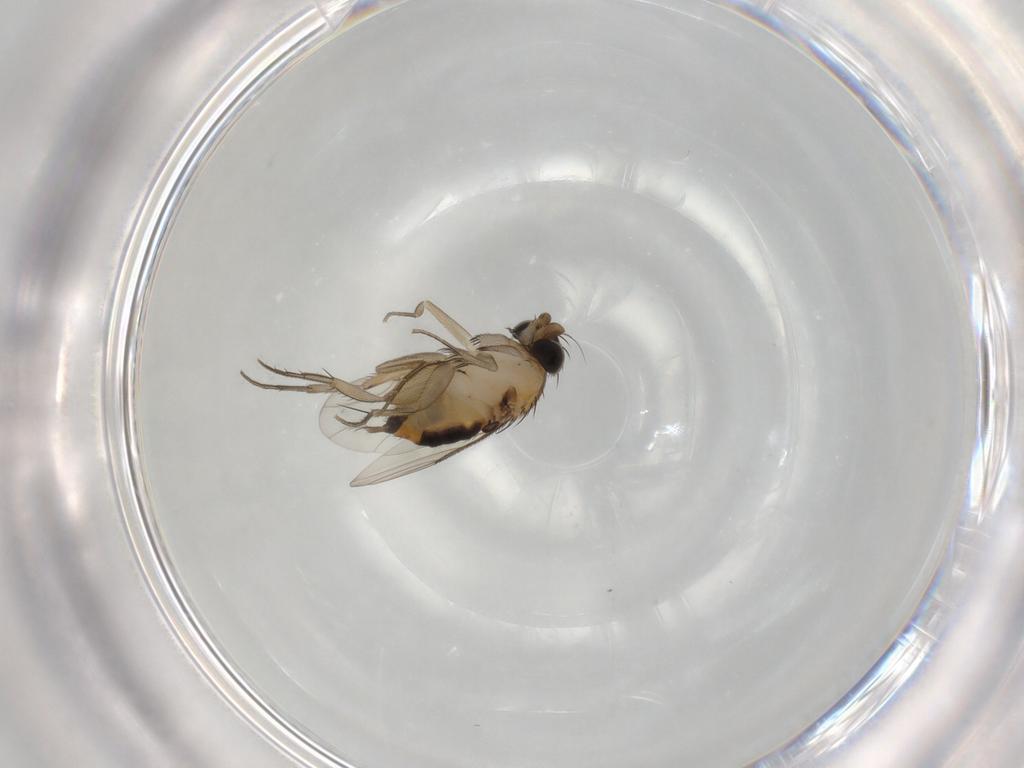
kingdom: Animalia
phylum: Arthropoda
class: Insecta
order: Diptera
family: Phoridae
